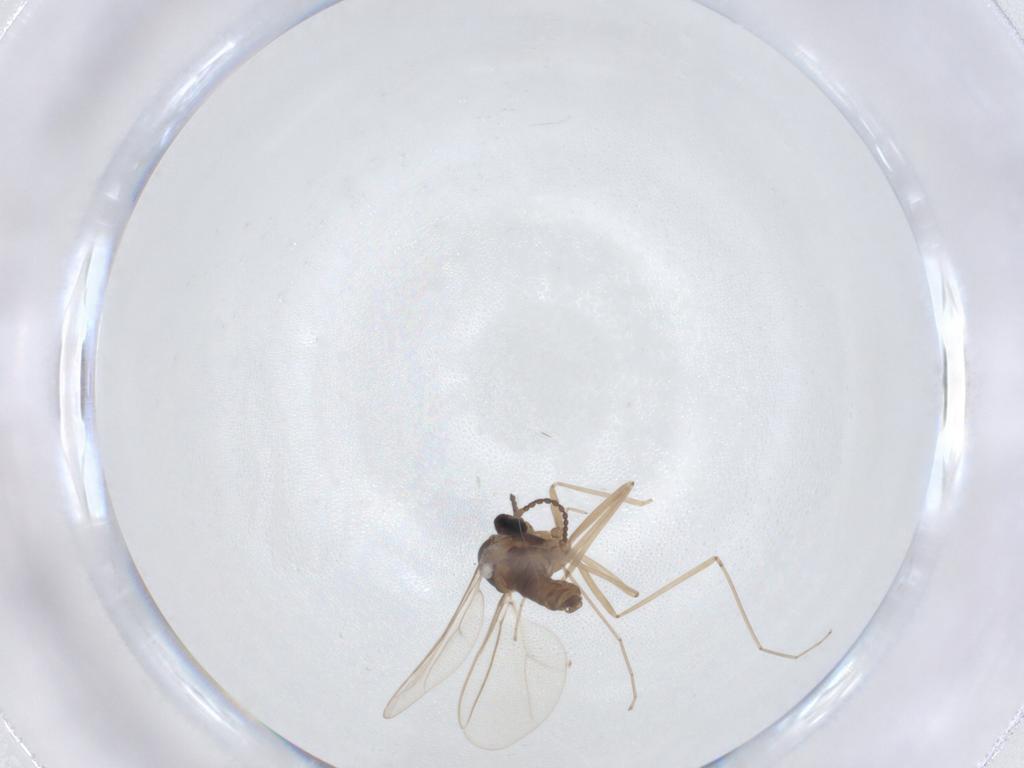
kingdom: Animalia
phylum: Arthropoda
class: Insecta
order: Diptera
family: Cecidomyiidae
